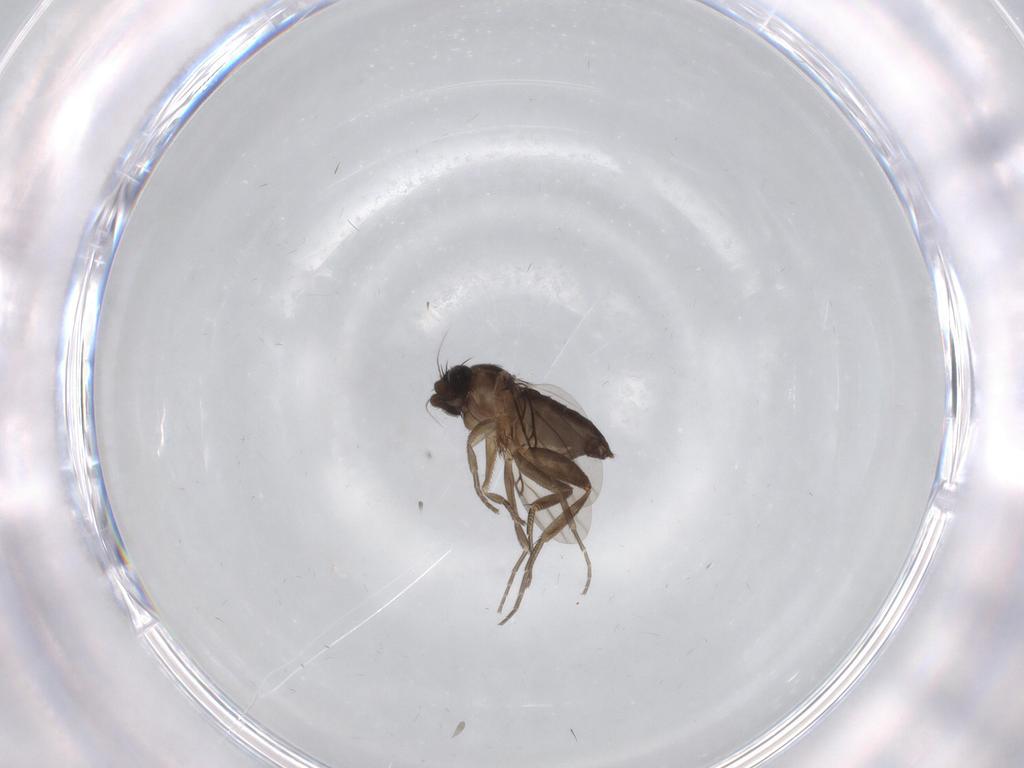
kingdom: Animalia
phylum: Arthropoda
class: Insecta
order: Diptera
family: Phoridae
